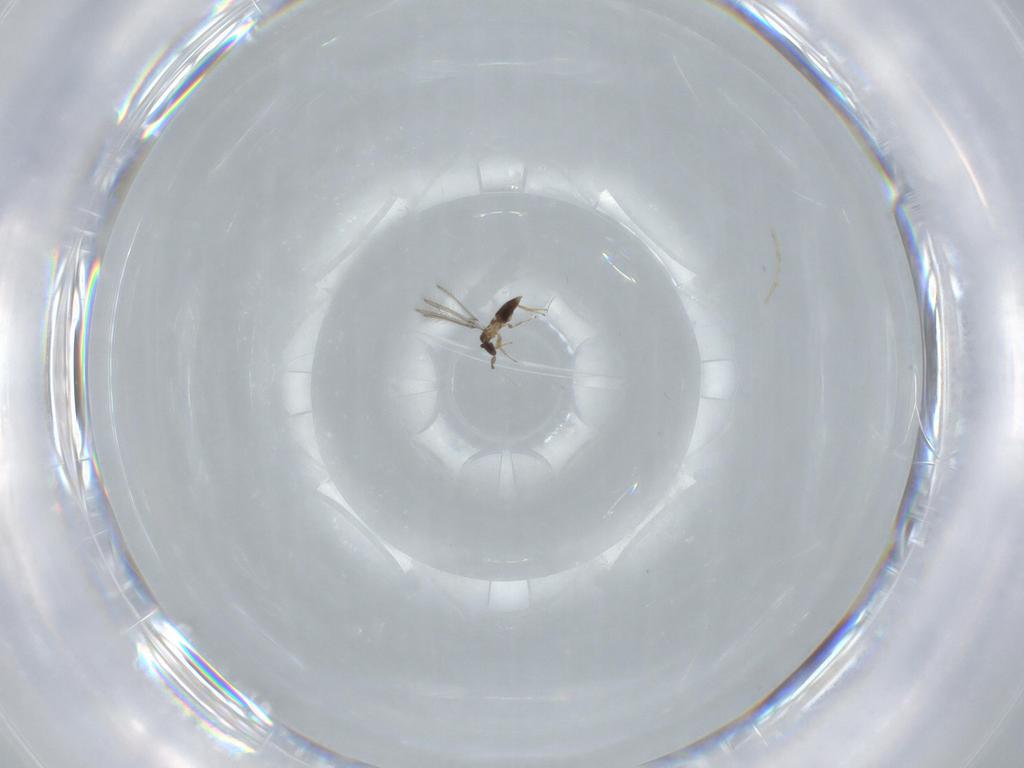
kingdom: Animalia
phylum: Arthropoda
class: Insecta
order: Hymenoptera
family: Mymaridae
